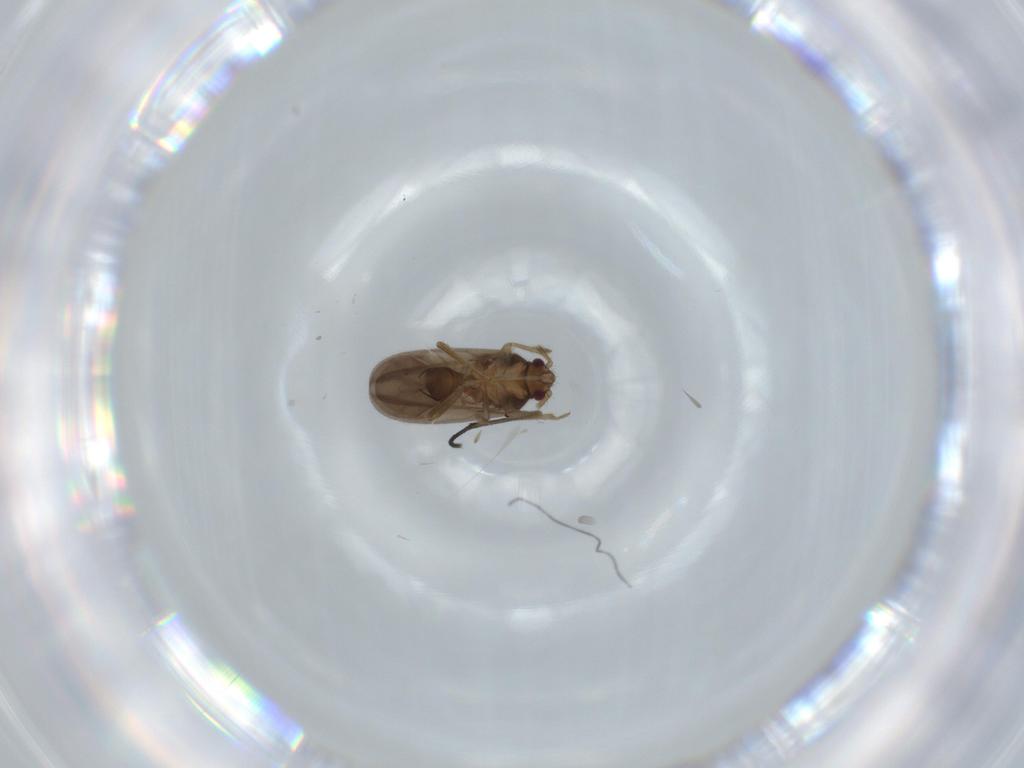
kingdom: Animalia
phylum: Arthropoda
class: Insecta
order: Hemiptera
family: Ceratocombidae
